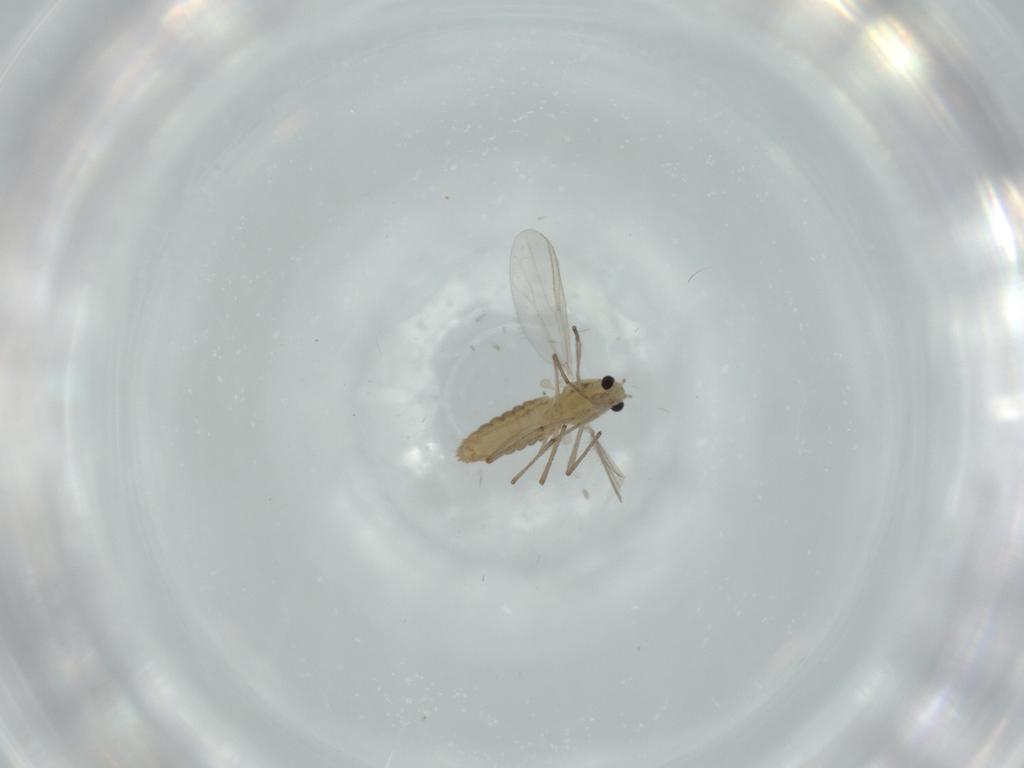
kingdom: Animalia
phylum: Arthropoda
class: Insecta
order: Diptera
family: Chironomidae
